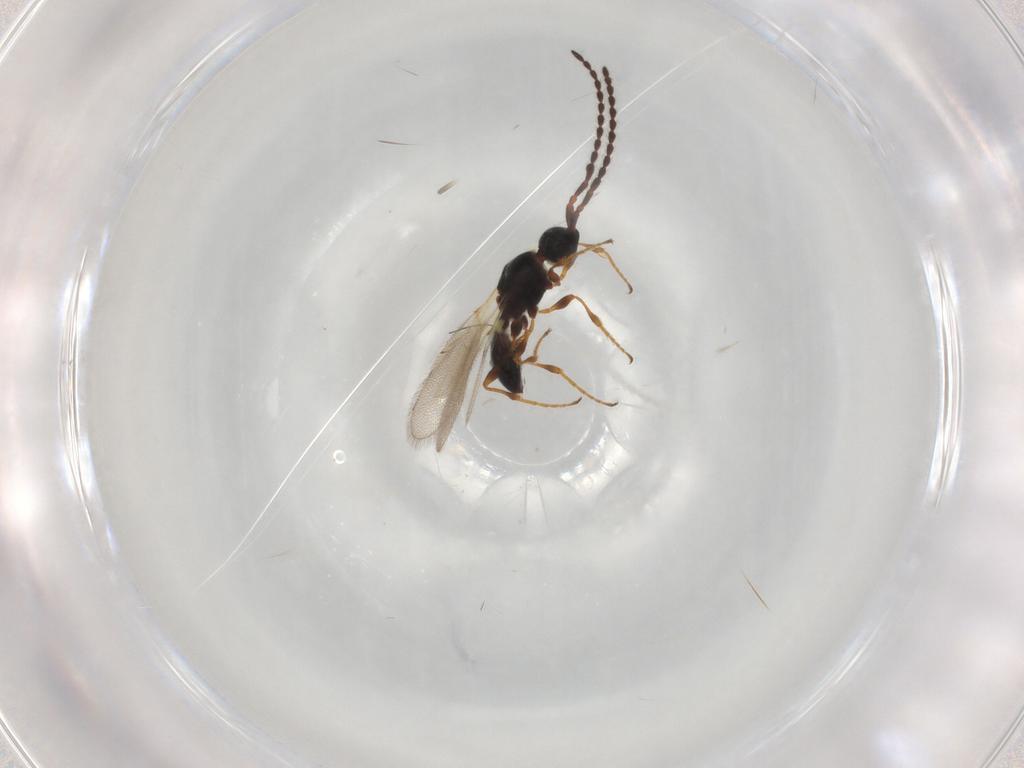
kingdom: Animalia
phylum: Arthropoda
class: Insecta
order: Hymenoptera
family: Diapriidae
